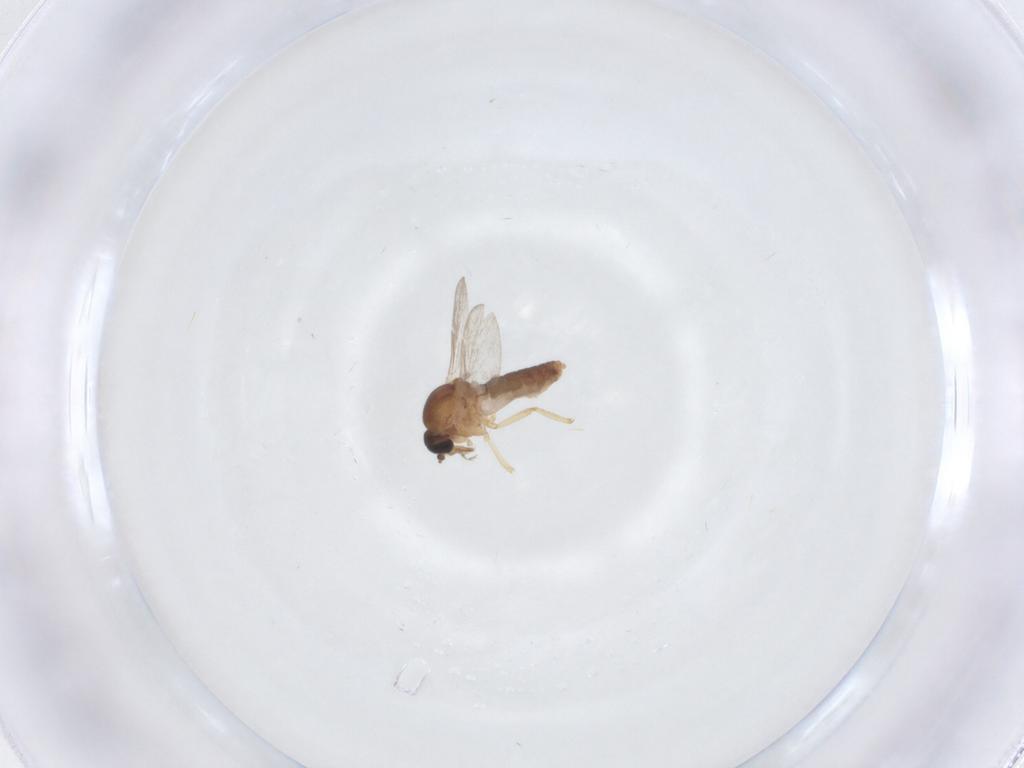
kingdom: Animalia
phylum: Arthropoda
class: Insecta
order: Diptera
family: Ceratopogonidae
